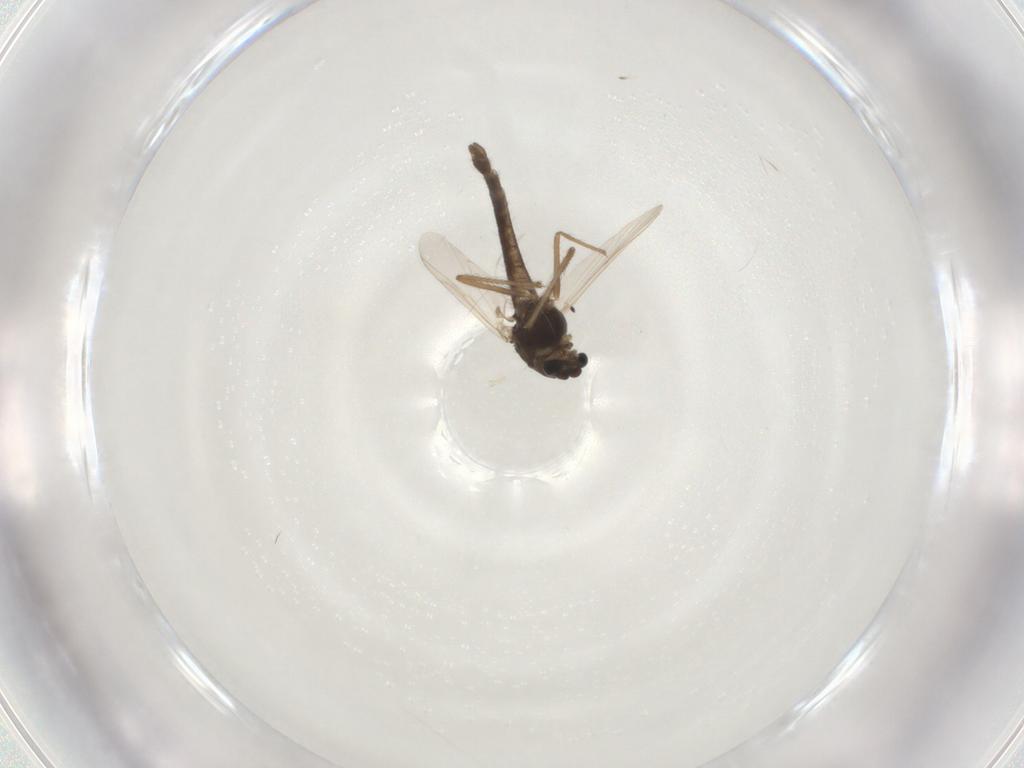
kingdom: Animalia
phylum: Arthropoda
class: Insecta
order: Diptera
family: Chironomidae
